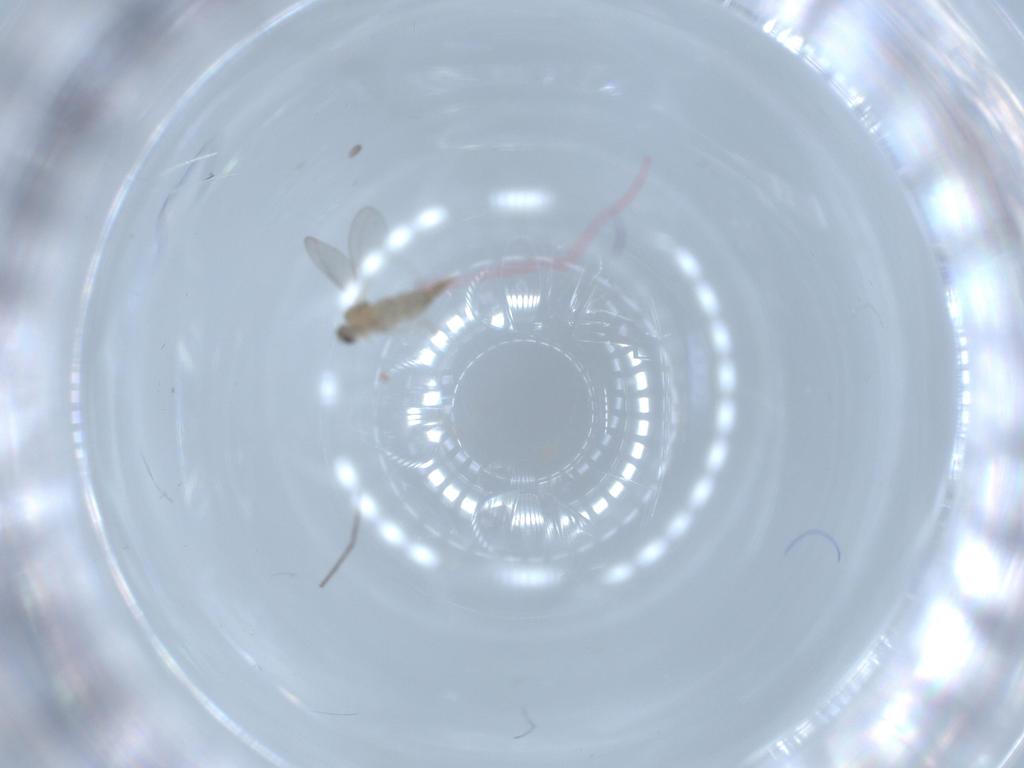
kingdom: Animalia
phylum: Arthropoda
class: Insecta
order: Diptera
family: Cecidomyiidae
